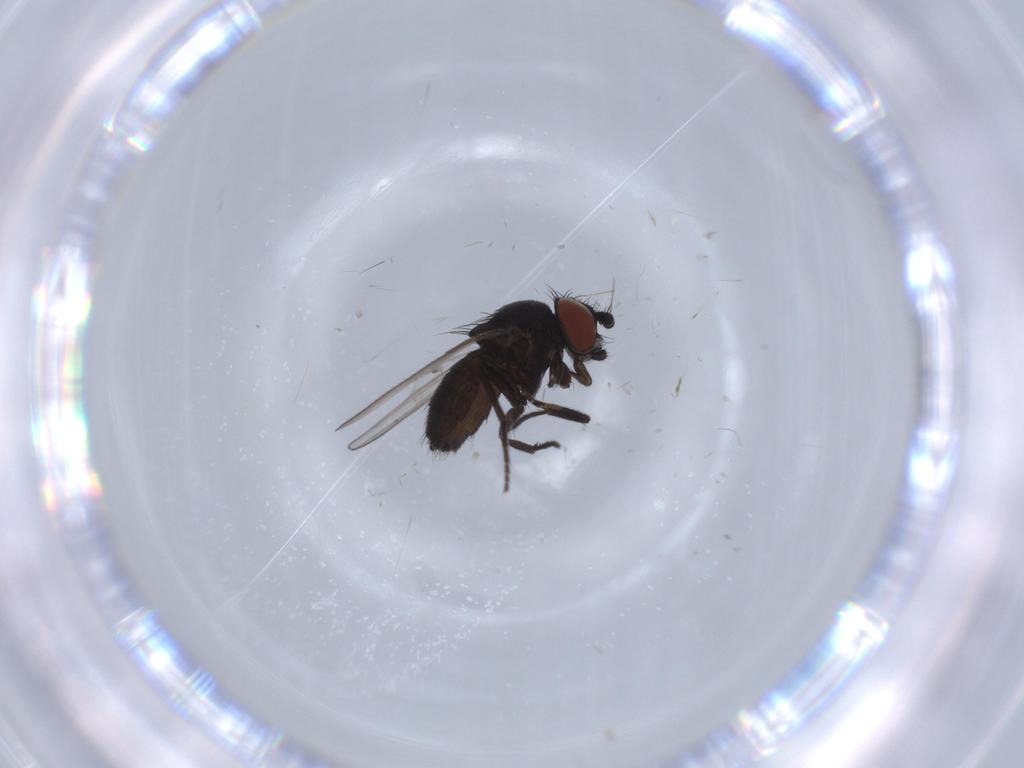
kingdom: Animalia
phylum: Arthropoda
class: Insecta
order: Diptera
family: Milichiidae
